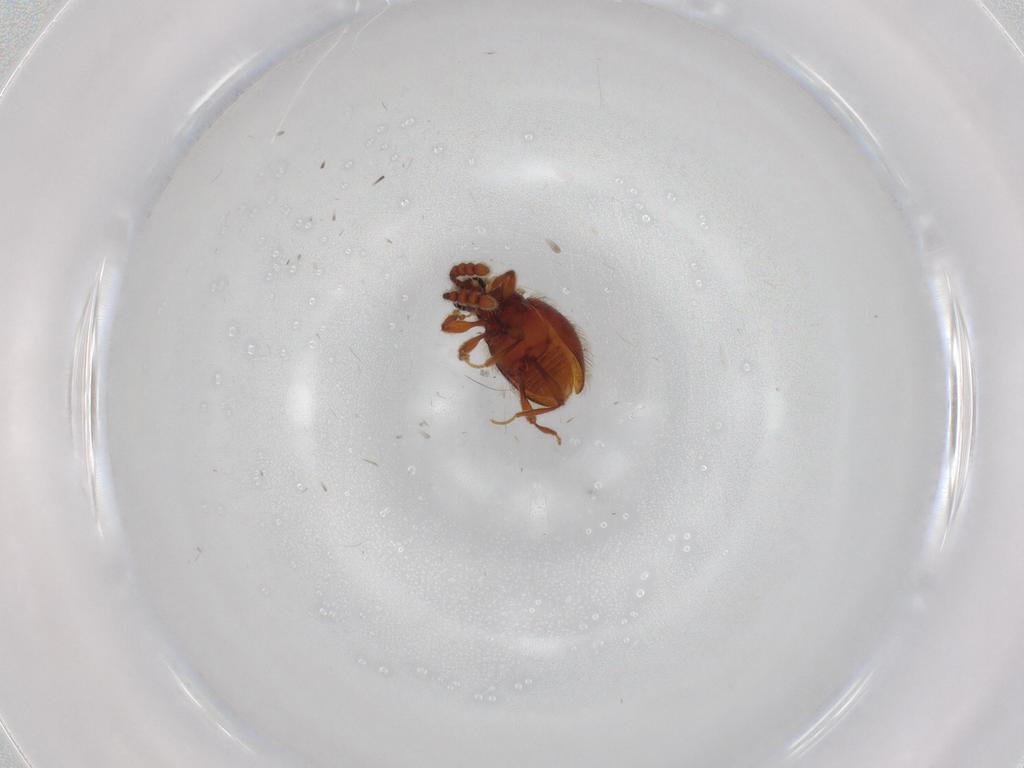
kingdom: Animalia
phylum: Arthropoda
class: Insecta
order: Coleoptera
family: Staphylinidae
